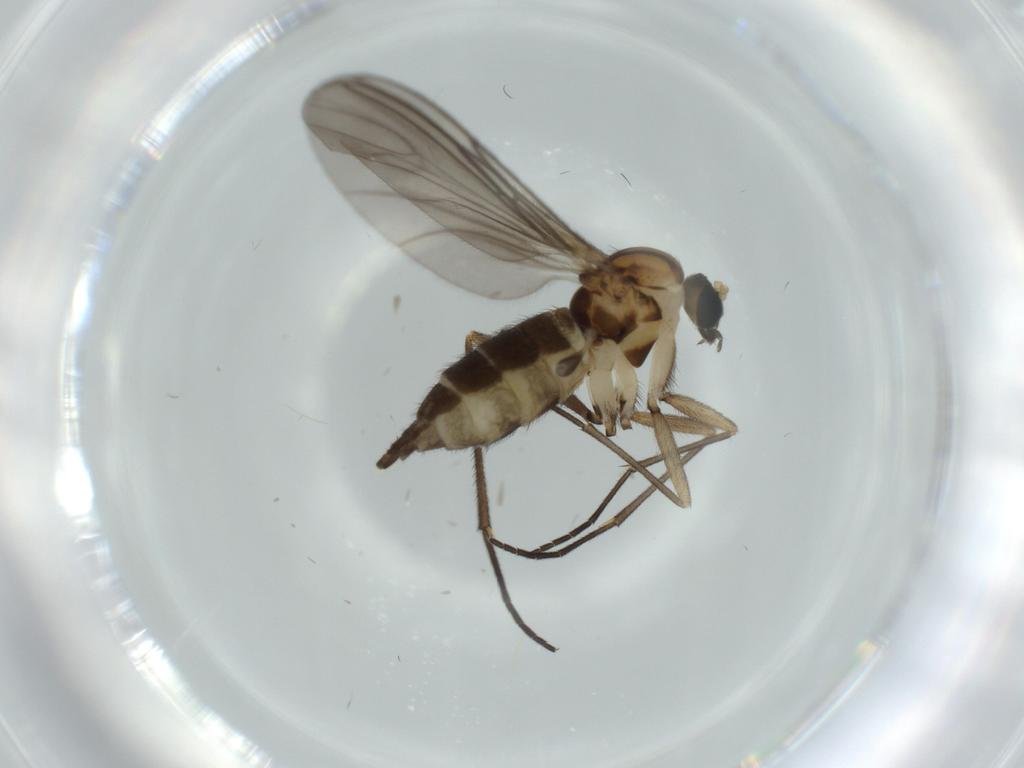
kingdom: Animalia
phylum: Arthropoda
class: Insecta
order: Diptera
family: Sciaridae
